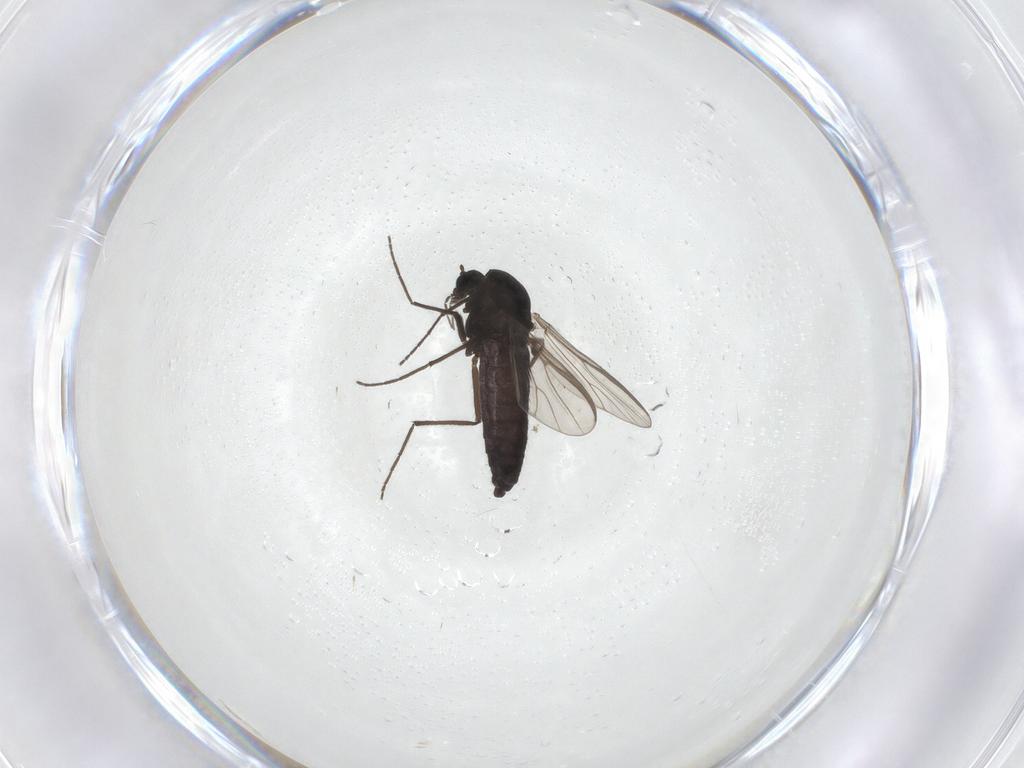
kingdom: Animalia
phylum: Arthropoda
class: Insecta
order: Diptera
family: Chironomidae
